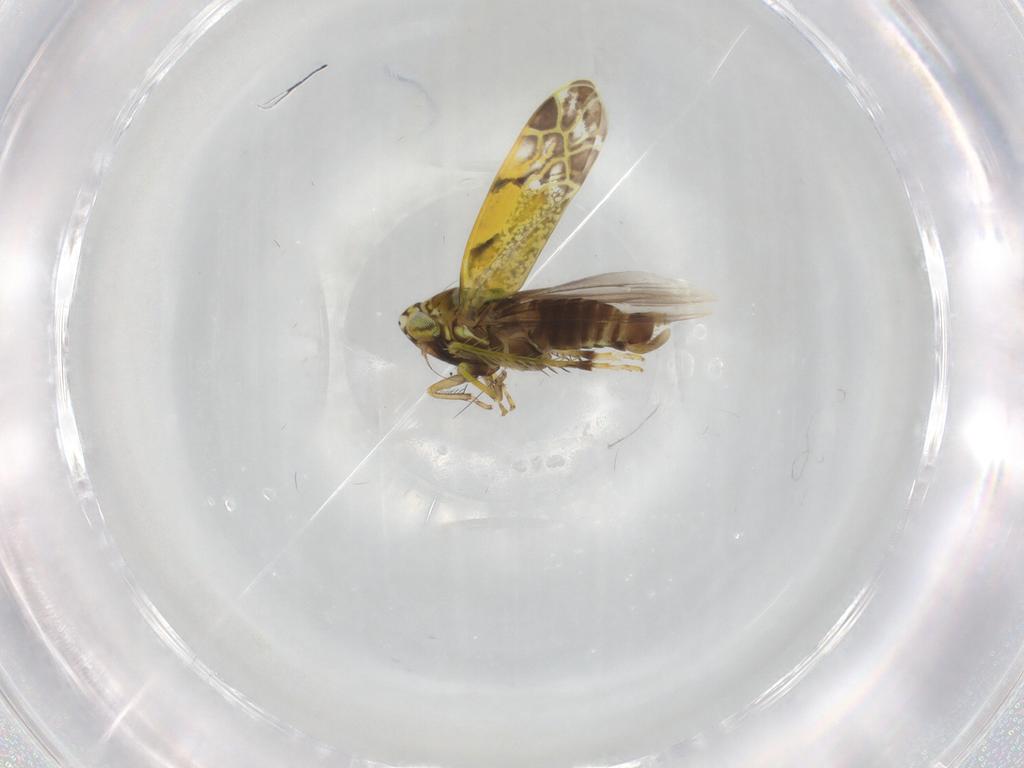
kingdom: Animalia
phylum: Arthropoda
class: Insecta
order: Hemiptera
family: Cicadellidae
